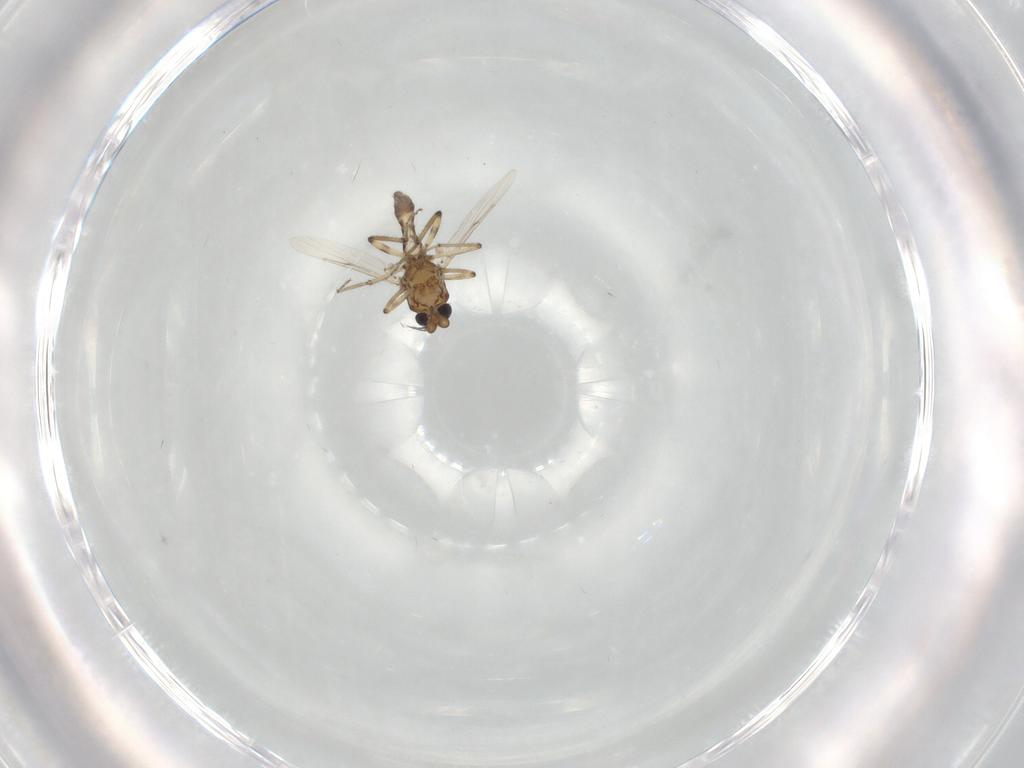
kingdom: Animalia
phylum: Arthropoda
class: Insecta
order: Diptera
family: Ceratopogonidae
